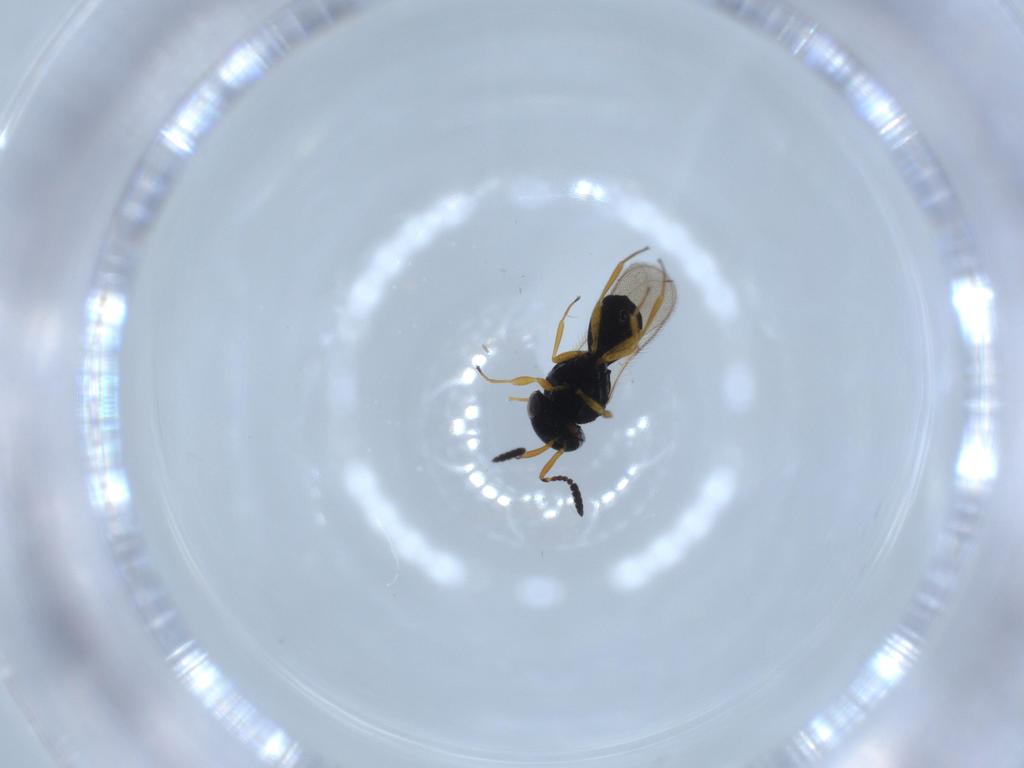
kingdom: Animalia
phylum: Arthropoda
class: Insecta
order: Hymenoptera
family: Scelionidae
